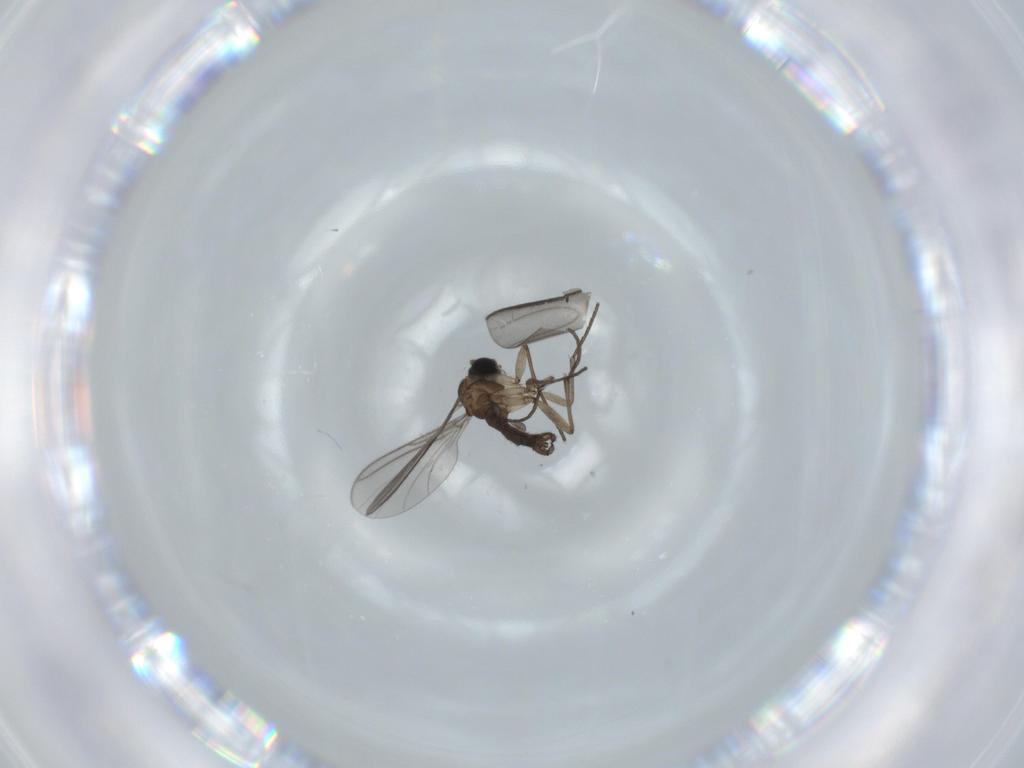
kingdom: Animalia
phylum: Arthropoda
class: Insecta
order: Diptera
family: Sciaridae
